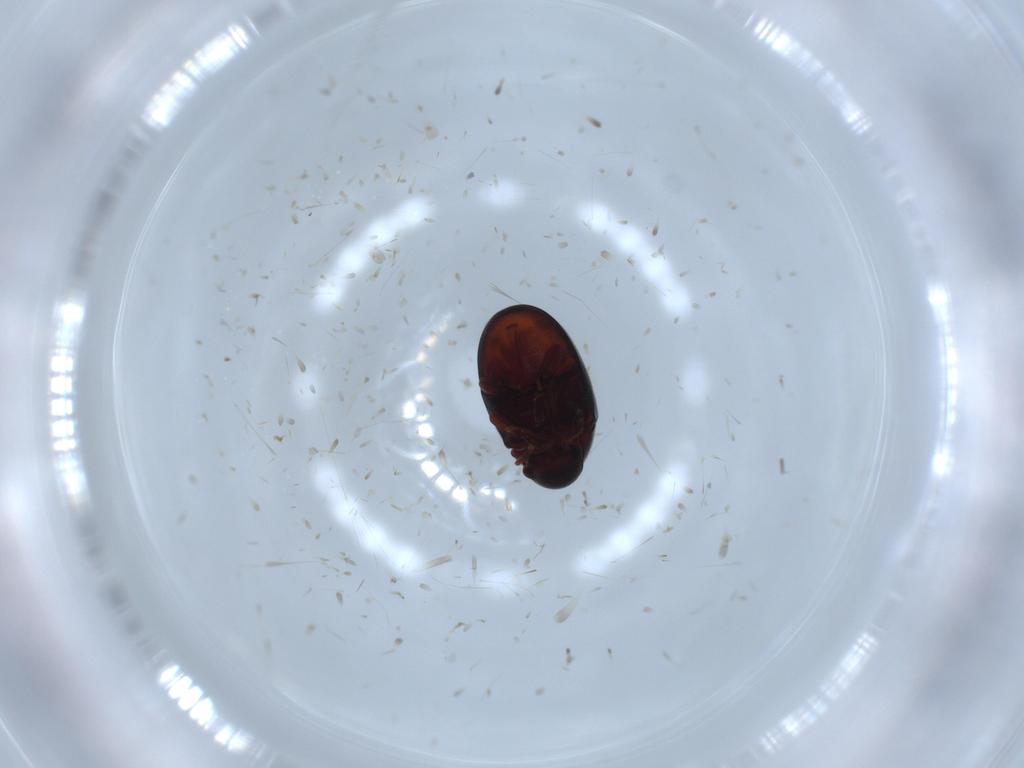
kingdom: Animalia
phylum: Arthropoda
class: Insecta
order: Coleoptera
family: Ptinidae
